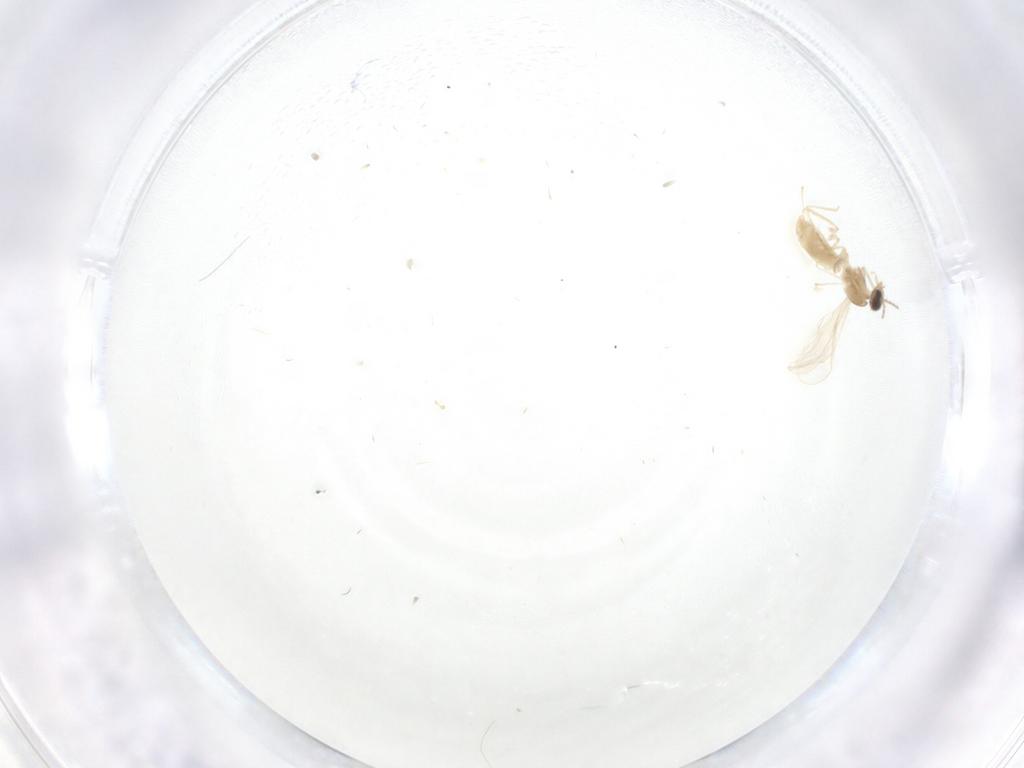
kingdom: Animalia
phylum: Arthropoda
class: Insecta
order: Diptera
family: Cecidomyiidae
